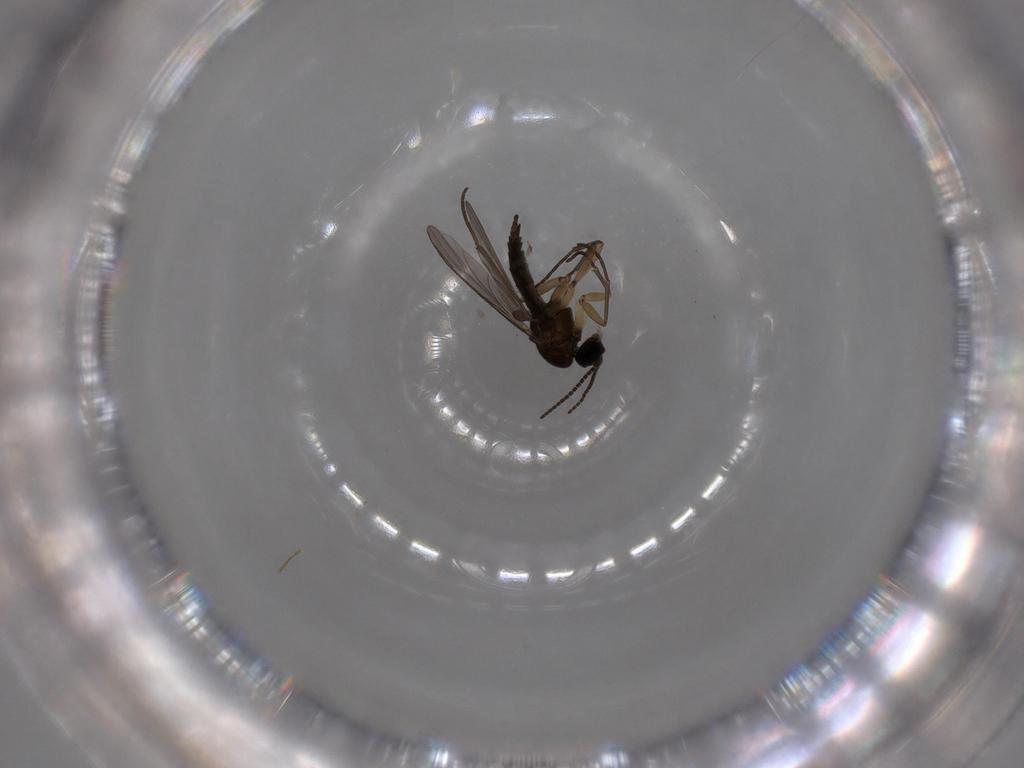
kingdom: Animalia
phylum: Arthropoda
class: Insecta
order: Diptera
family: Sciaridae
